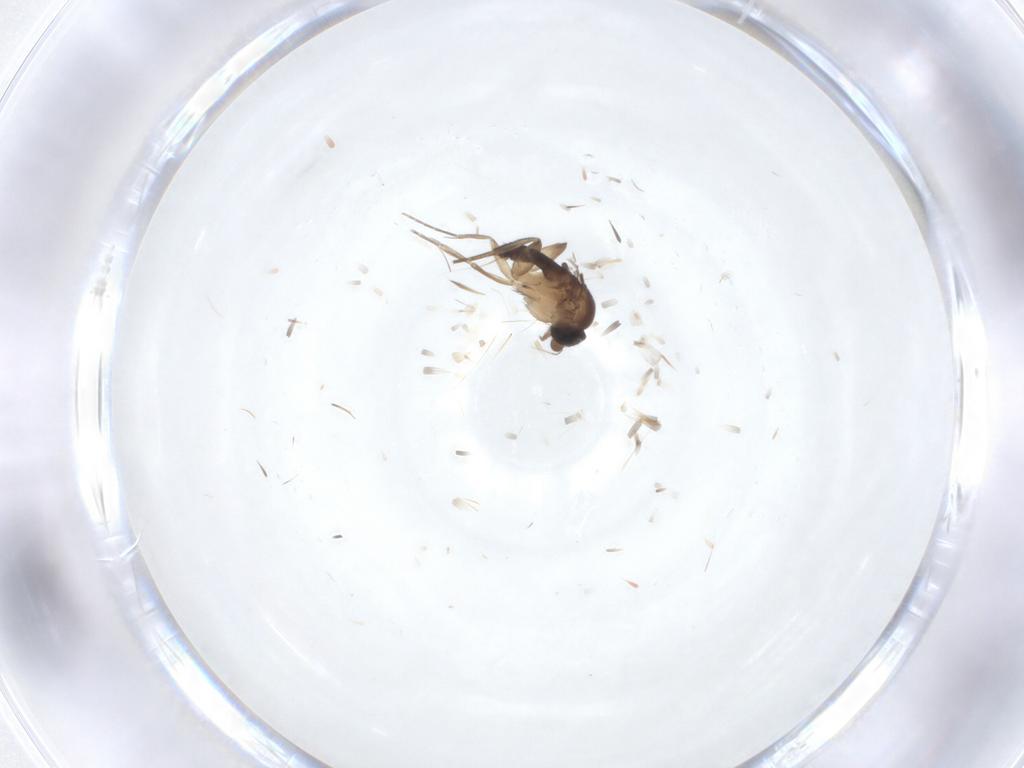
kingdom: Animalia
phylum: Arthropoda
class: Insecta
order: Diptera
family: Phoridae
